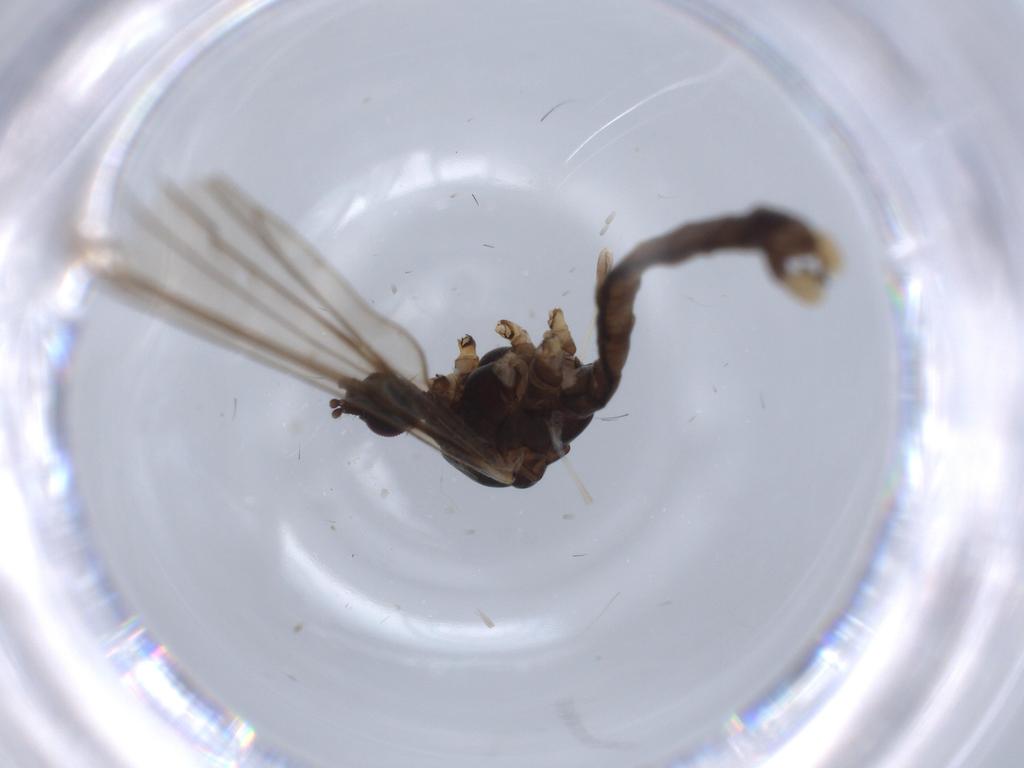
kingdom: Animalia
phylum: Arthropoda
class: Insecta
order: Diptera
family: Sciaridae
